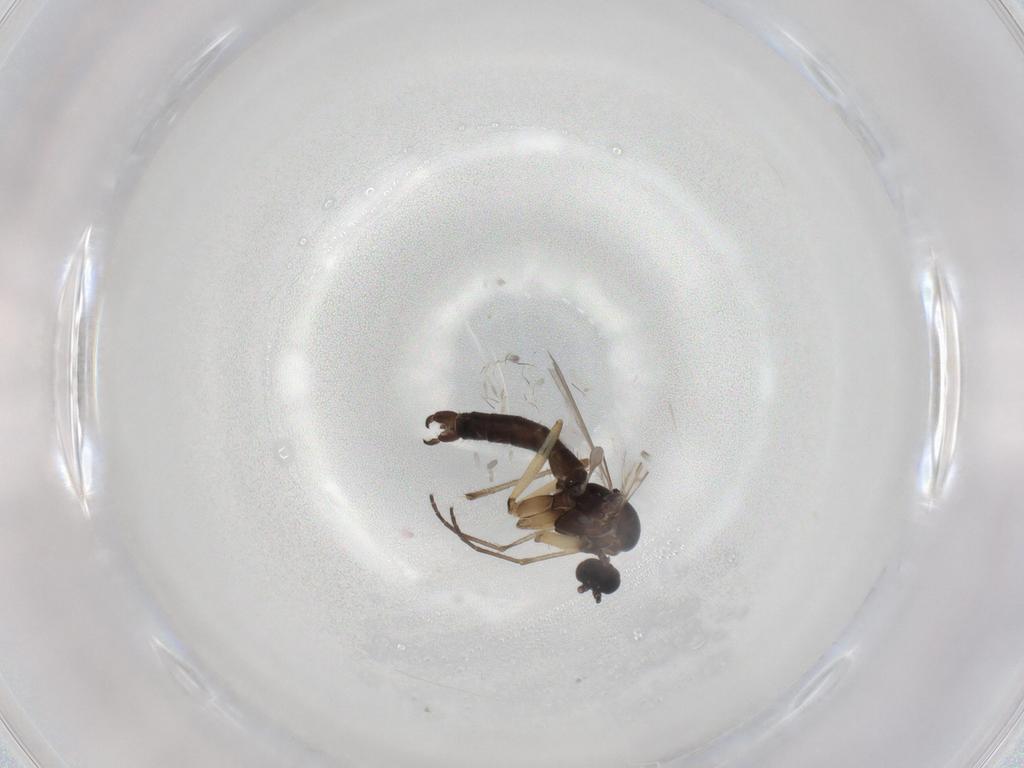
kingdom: Animalia
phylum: Arthropoda
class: Insecta
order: Diptera
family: Sciaridae
